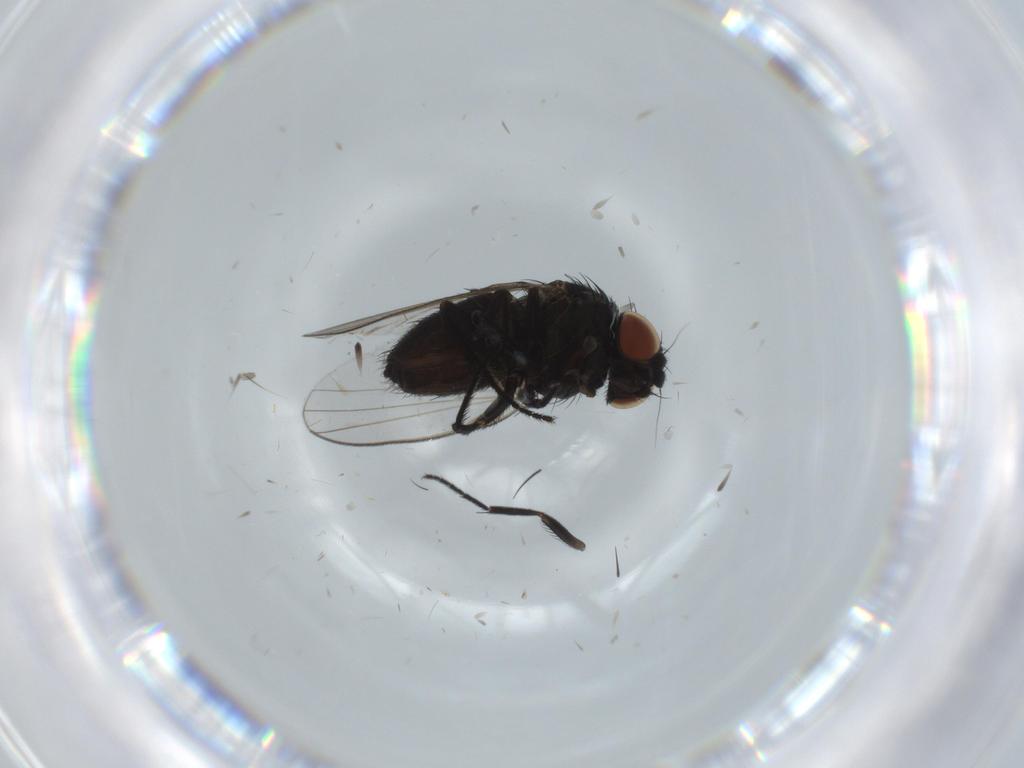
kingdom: Animalia
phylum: Arthropoda
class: Insecta
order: Diptera
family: Milichiidae
